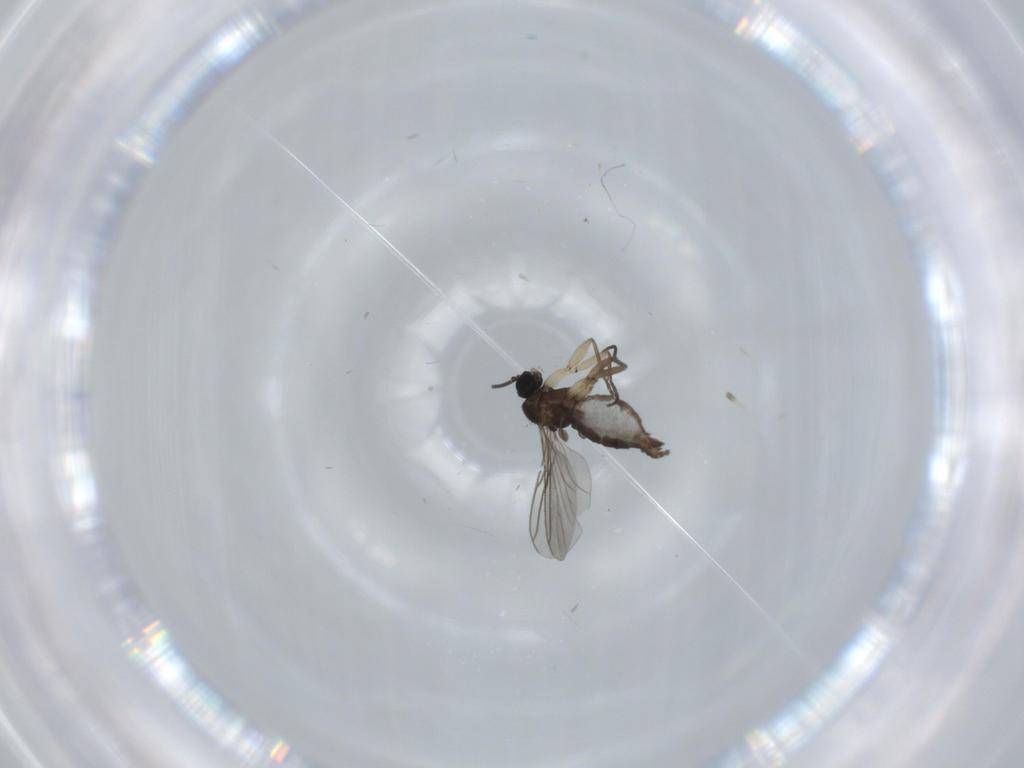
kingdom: Animalia
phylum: Arthropoda
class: Insecta
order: Diptera
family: Sciaridae
